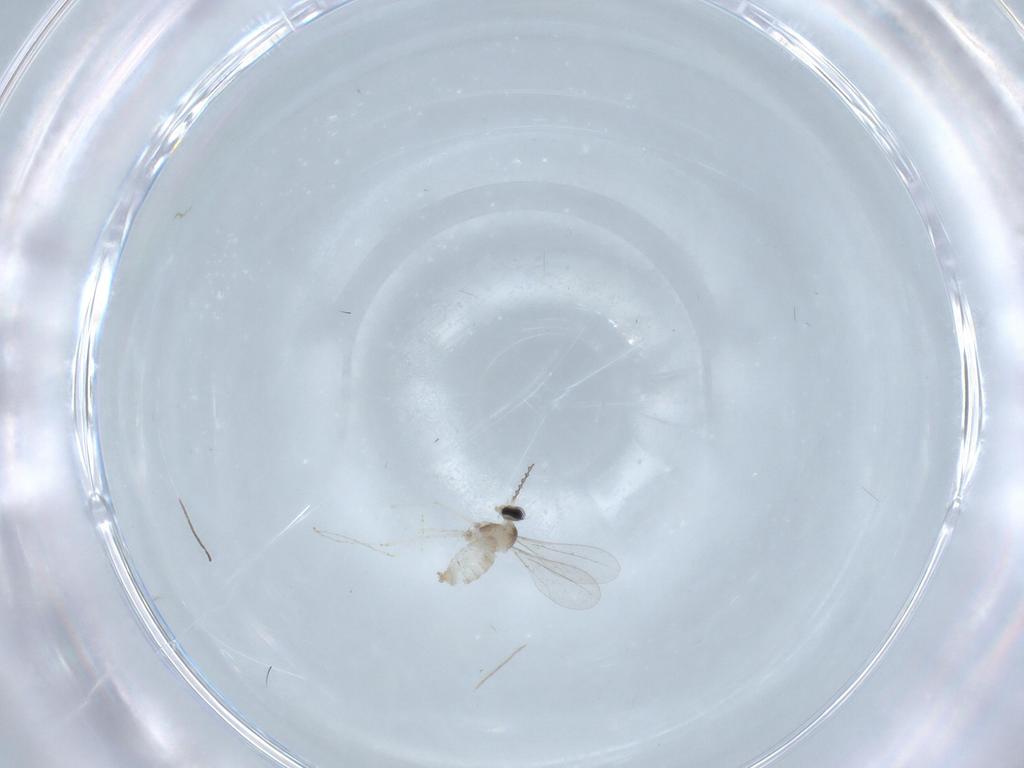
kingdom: Animalia
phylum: Arthropoda
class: Insecta
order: Diptera
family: Cecidomyiidae
